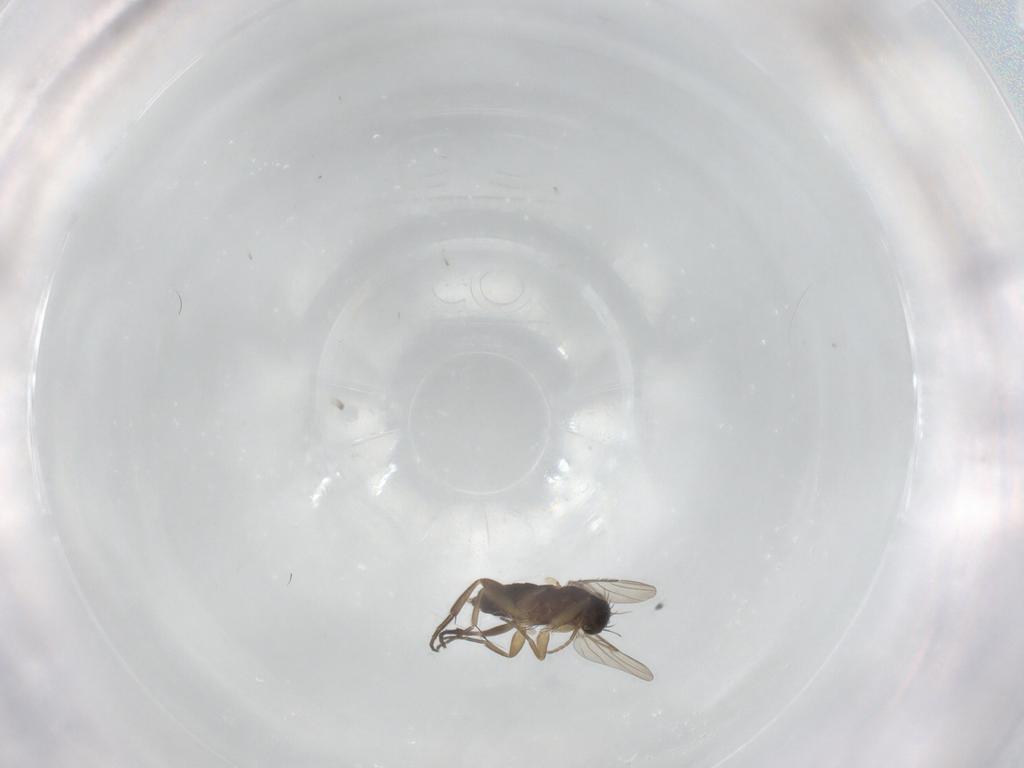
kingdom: Animalia
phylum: Arthropoda
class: Insecta
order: Diptera
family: Phoridae
